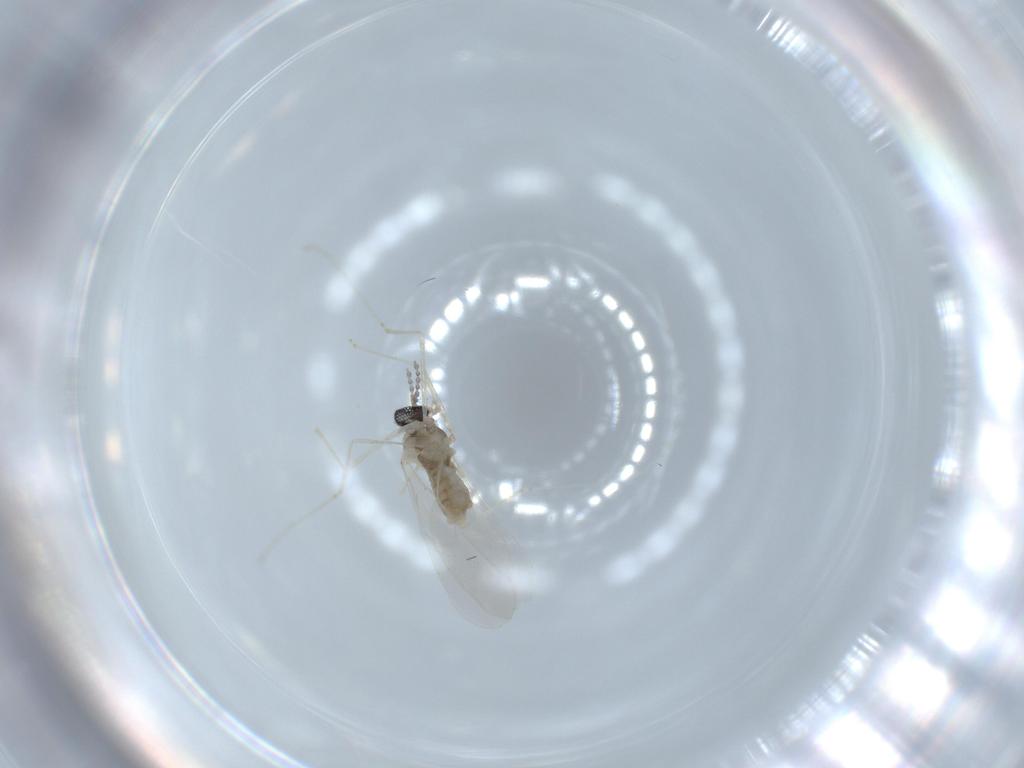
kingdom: Animalia
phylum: Arthropoda
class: Insecta
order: Diptera
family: Cecidomyiidae
